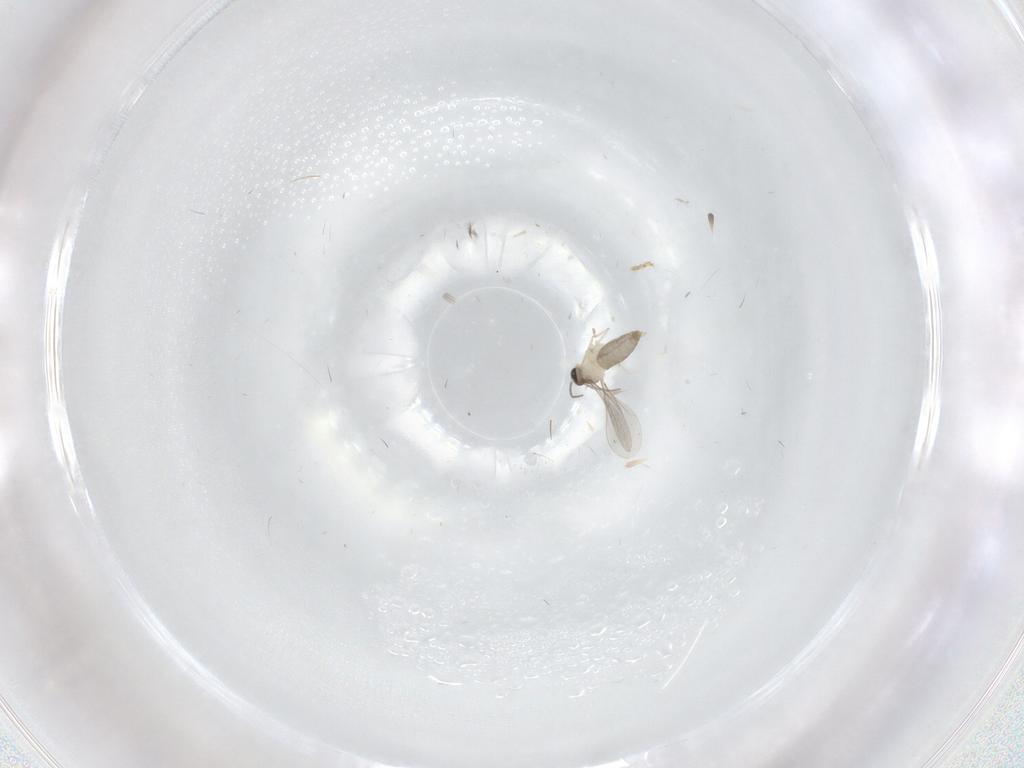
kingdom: Animalia
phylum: Arthropoda
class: Insecta
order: Diptera
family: Cecidomyiidae
